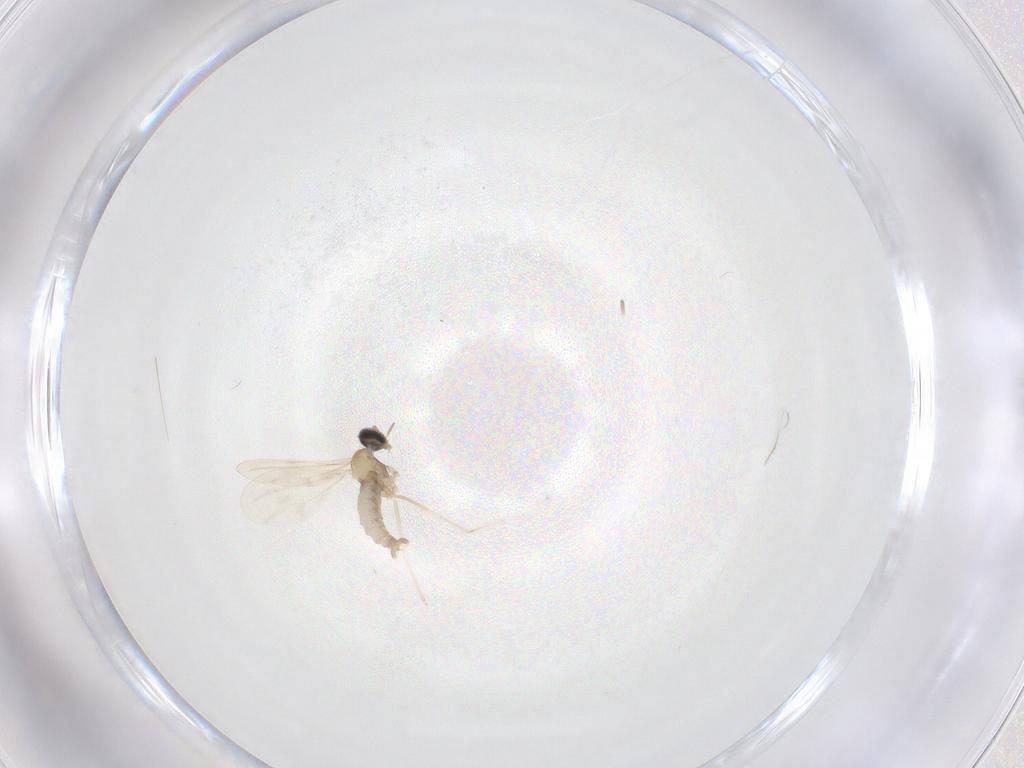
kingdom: Animalia
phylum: Arthropoda
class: Insecta
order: Diptera
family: Cecidomyiidae
